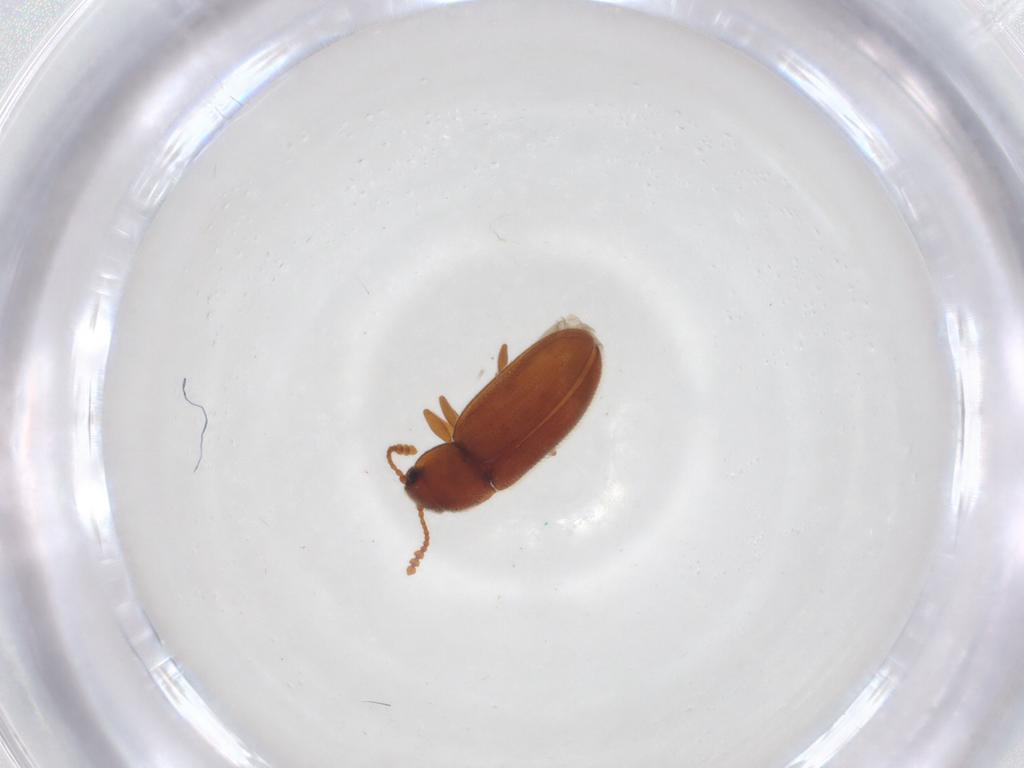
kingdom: Animalia
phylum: Arthropoda
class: Insecta
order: Coleoptera
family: Erotylidae
